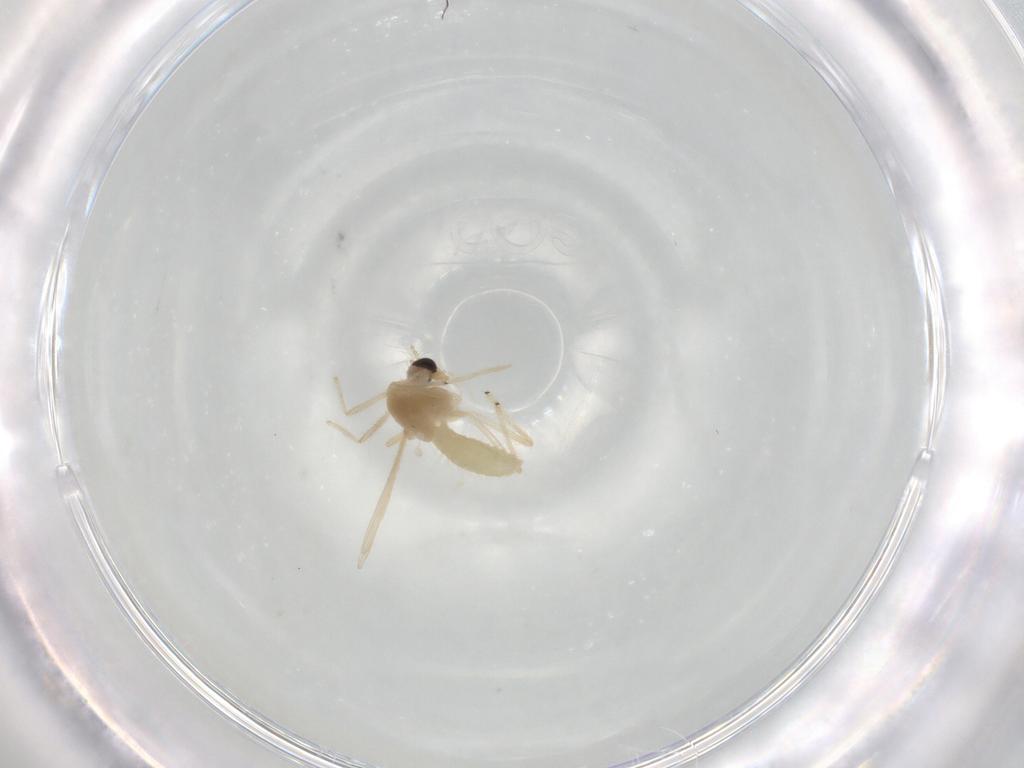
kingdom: Animalia
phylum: Arthropoda
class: Insecta
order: Diptera
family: Chironomidae
